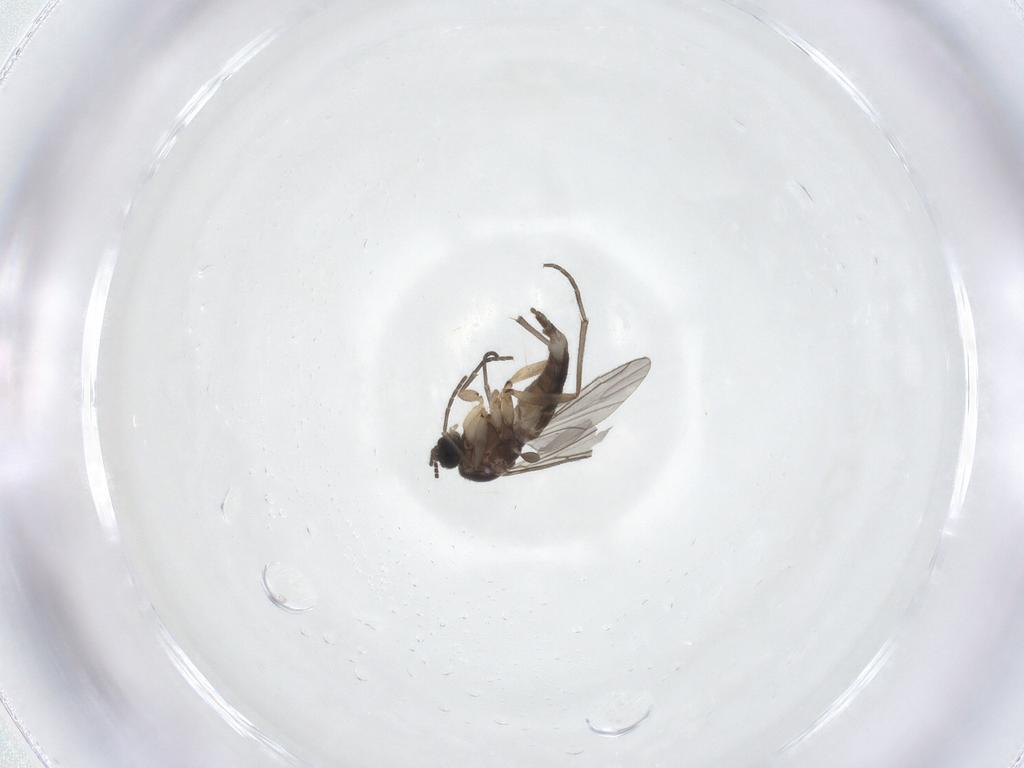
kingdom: Animalia
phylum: Arthropoda
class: Insecta
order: Diptera
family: Sciaridae
